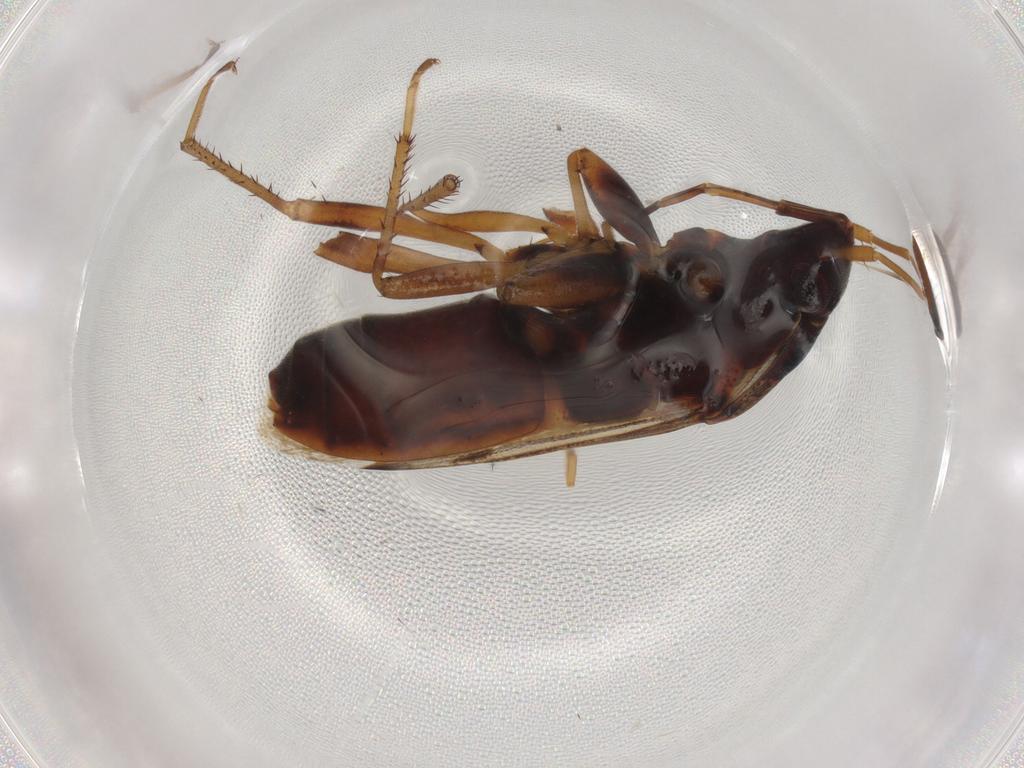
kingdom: Animalia
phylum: Arthropoda
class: Insecta
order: Hemiptera
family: Rhyparochromidae
